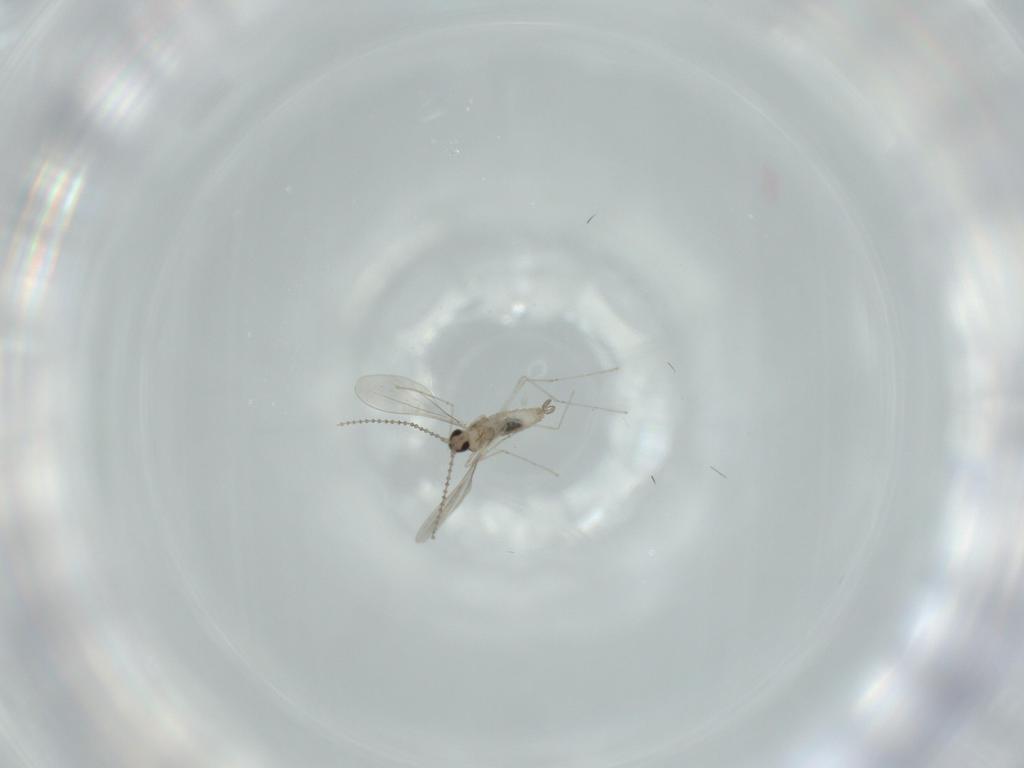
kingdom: Animalia
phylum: Arthropoda
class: Insecta
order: Diptera
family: Cecidomyiidae
